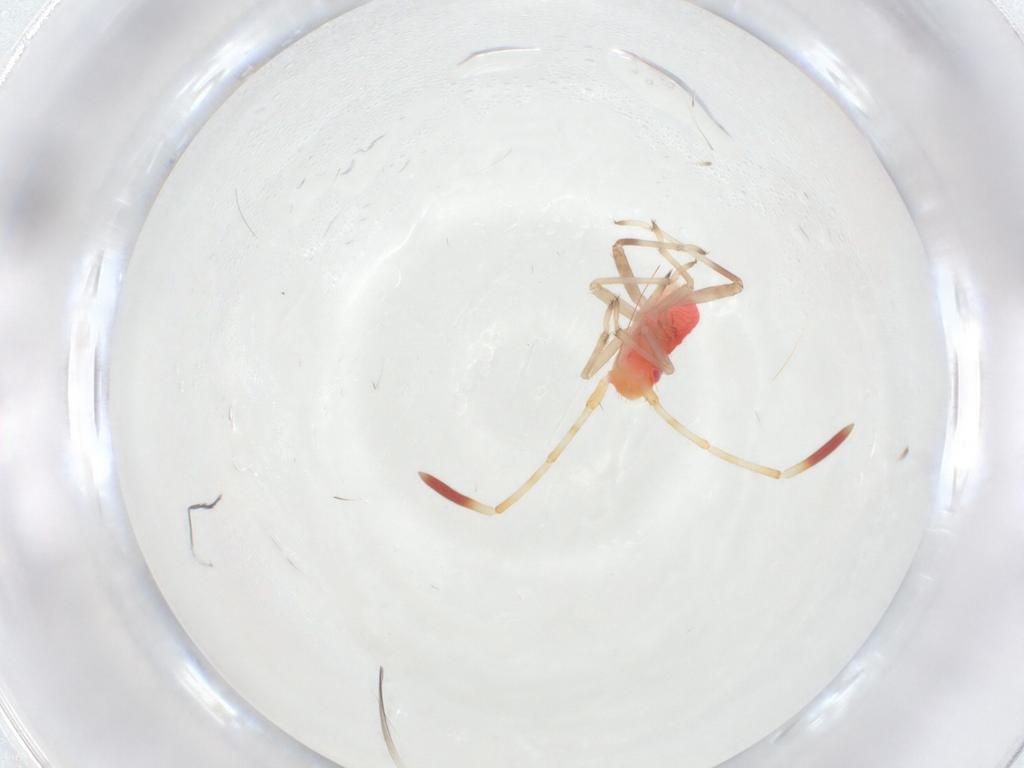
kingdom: Animalia
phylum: Arthropoda
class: Insecta
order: Hemiptera
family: Miridae
